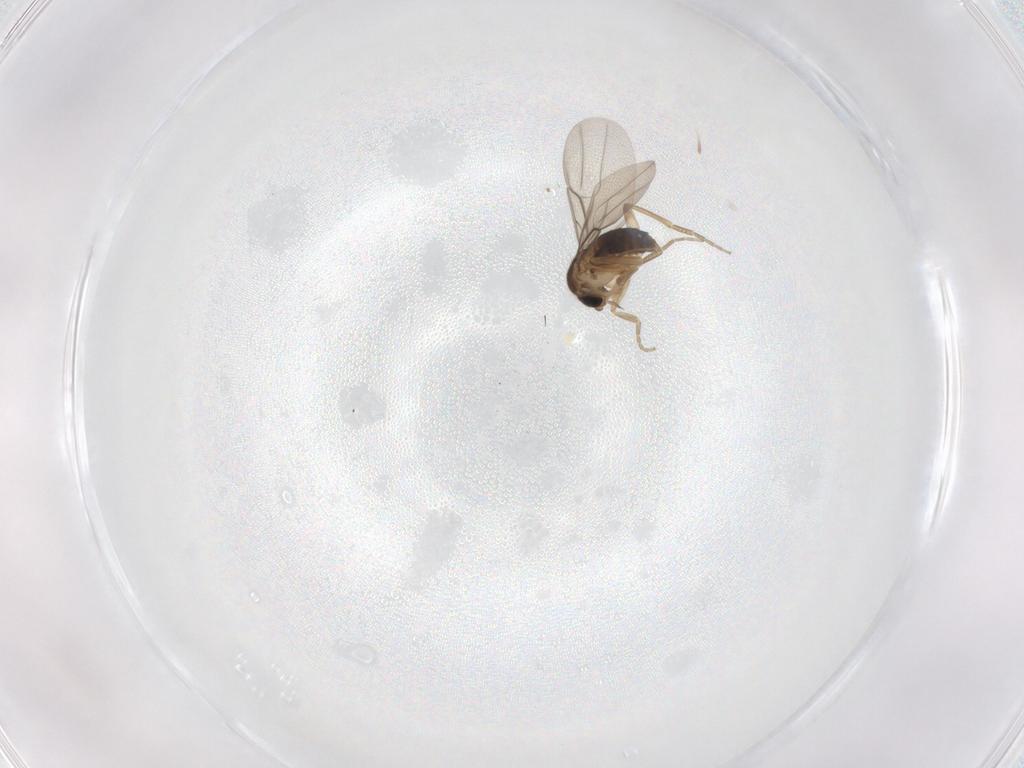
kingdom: Animalia
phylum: Arthropoda
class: Insecta
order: Diptera
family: Phoridae
